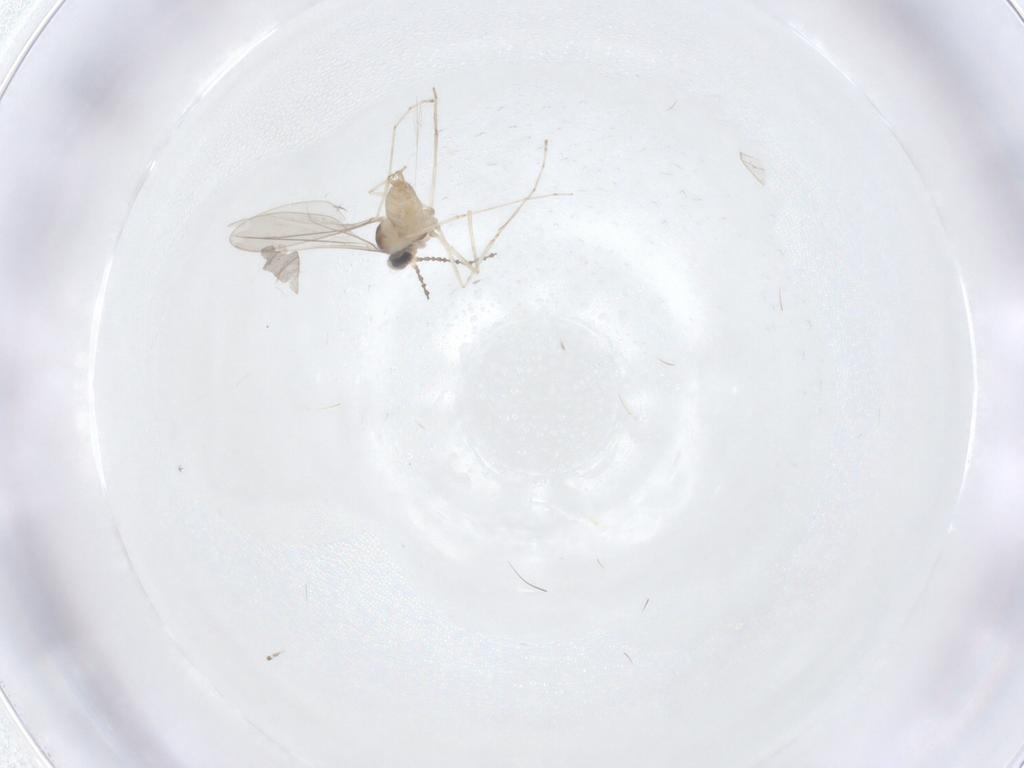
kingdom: Animalia
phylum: Arthropoda
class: Insecta
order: Diptera
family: Cecidomyiidae
